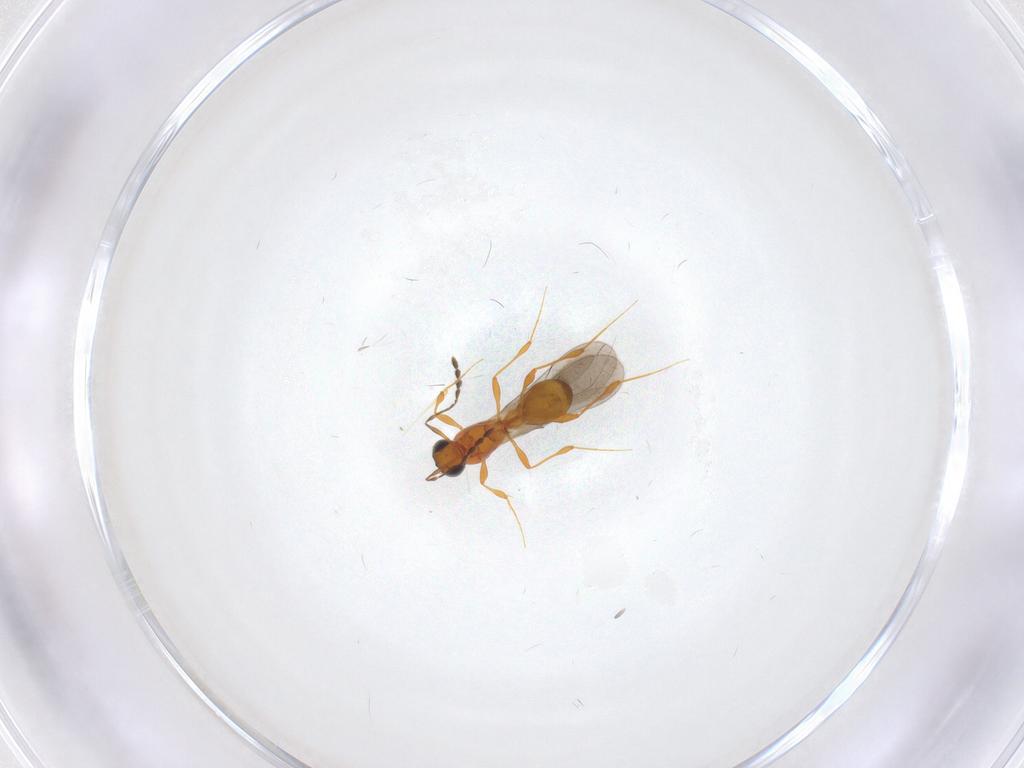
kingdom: Animalia
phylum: Arthropoda
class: Insecta
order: Hymenoptera
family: Platygastridae
